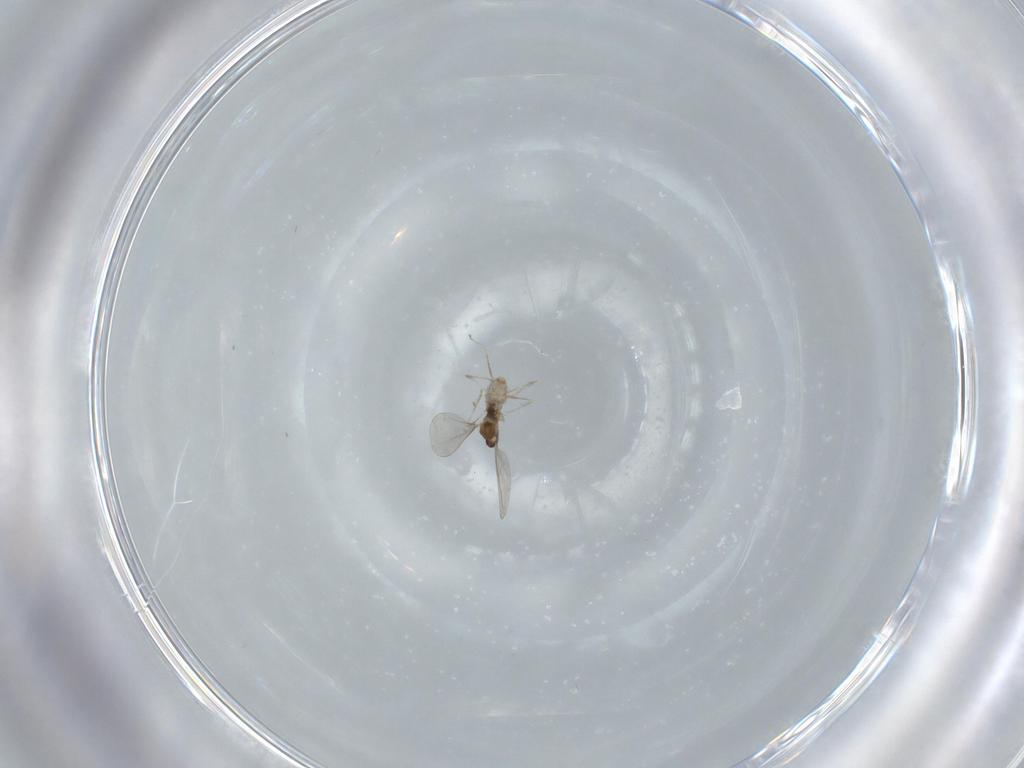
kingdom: Animalia
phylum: Arthropoda
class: Insecta
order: Diptera
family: Cecidomyiidae
